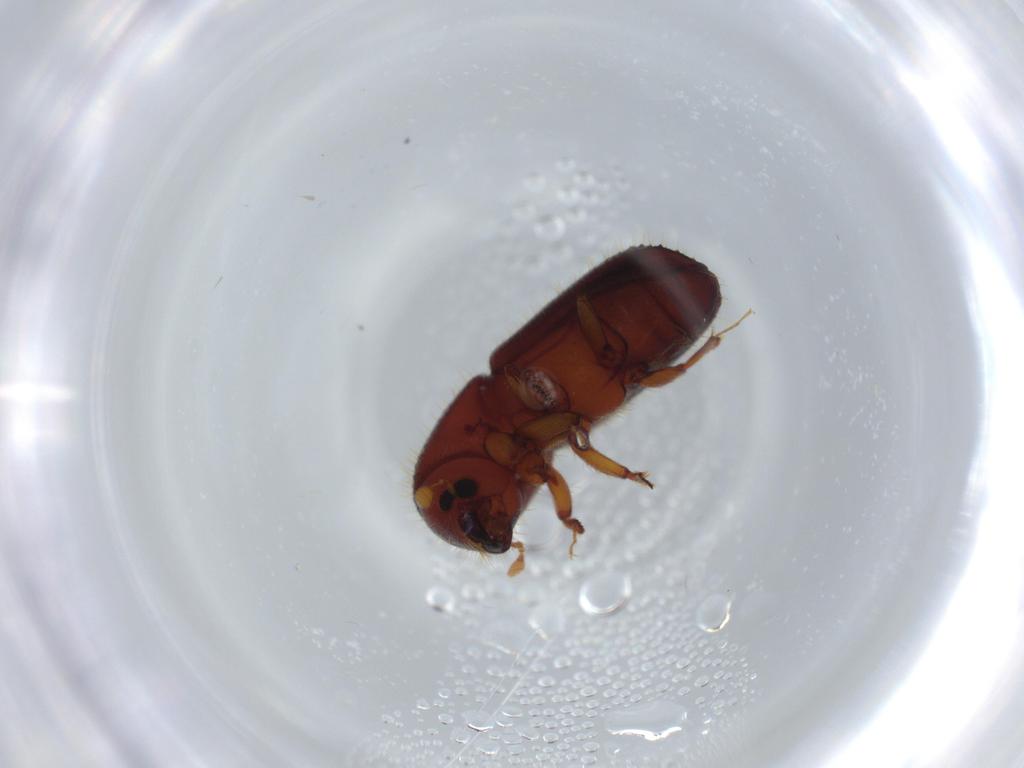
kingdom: Animalia
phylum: Arthropoda
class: Insecta
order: Coleoptera
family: Curculionidae
